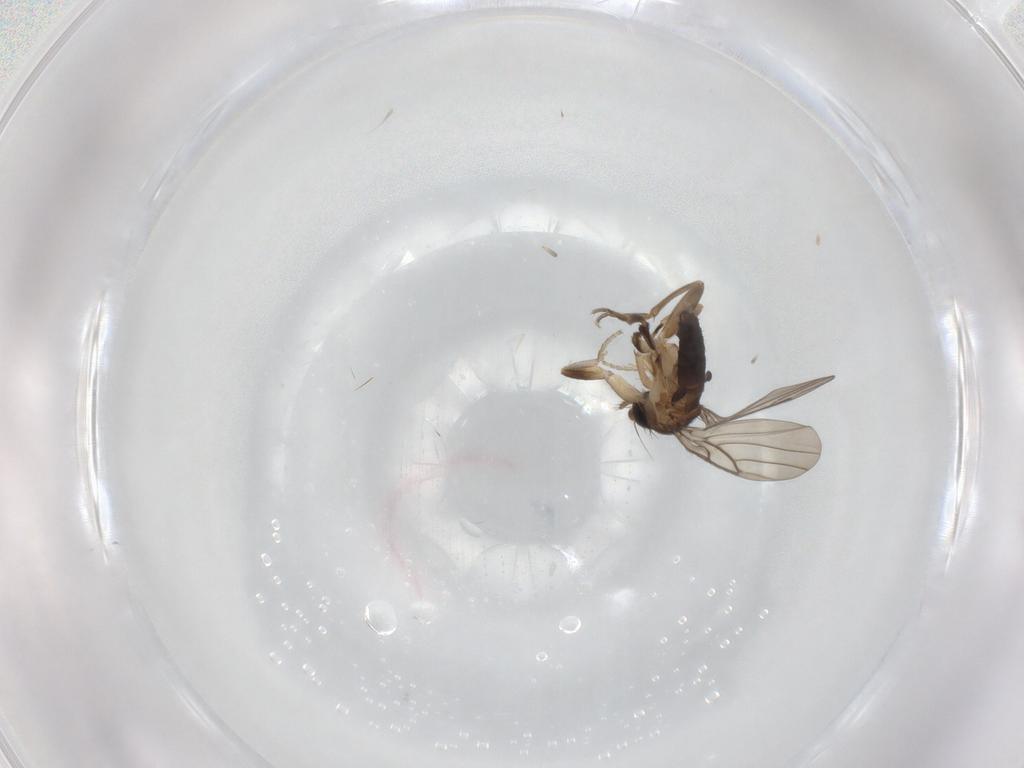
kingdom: Animalia
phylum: Arthropoda
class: Insecta
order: Diptera
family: Phoridae
